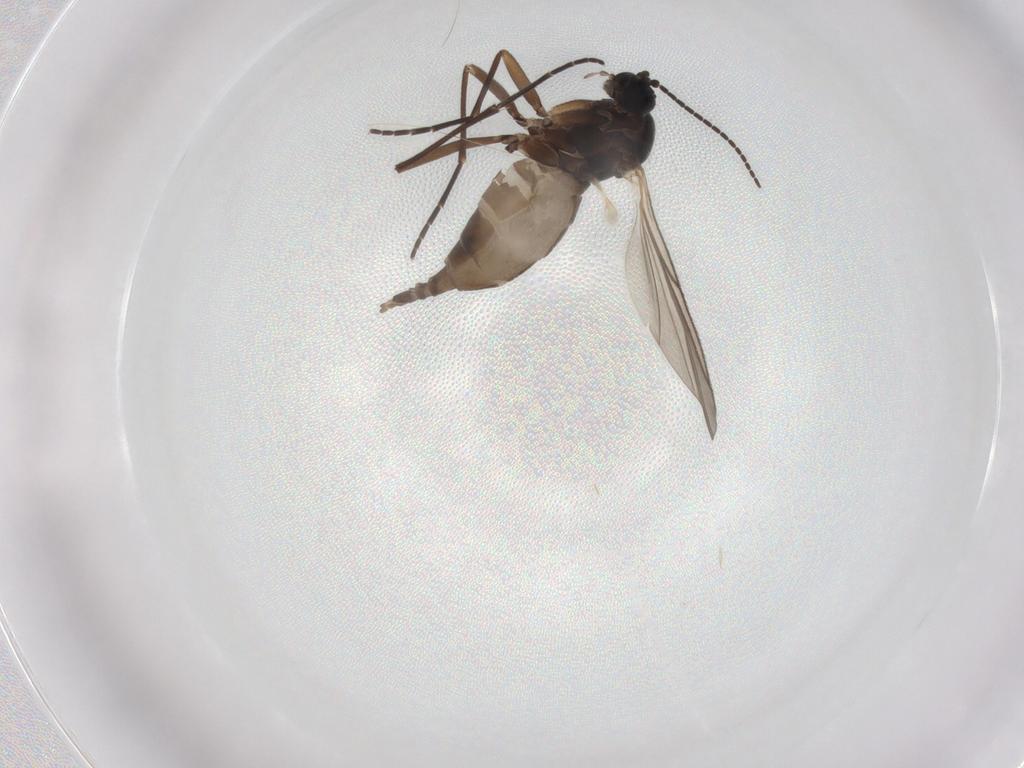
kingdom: Animalia
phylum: Arthropoda
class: Insecta
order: Diptera
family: Sciaridae
